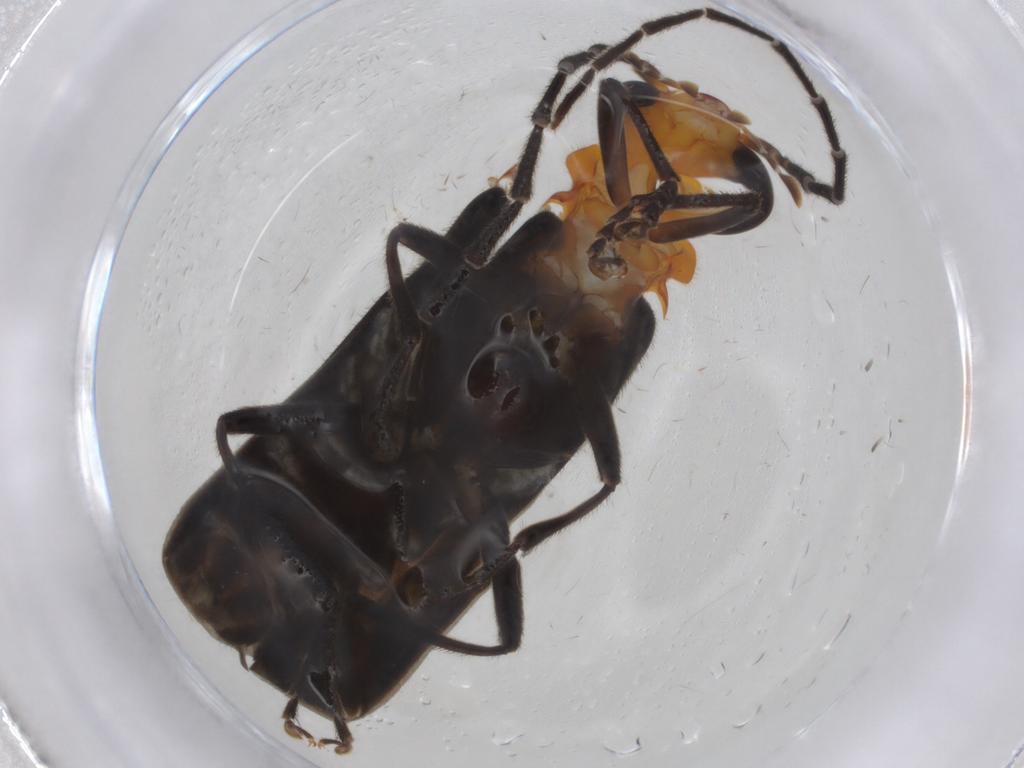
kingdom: Animalia
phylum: Arthropoda
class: Insecta
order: Coleoptera
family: Cantharidae
